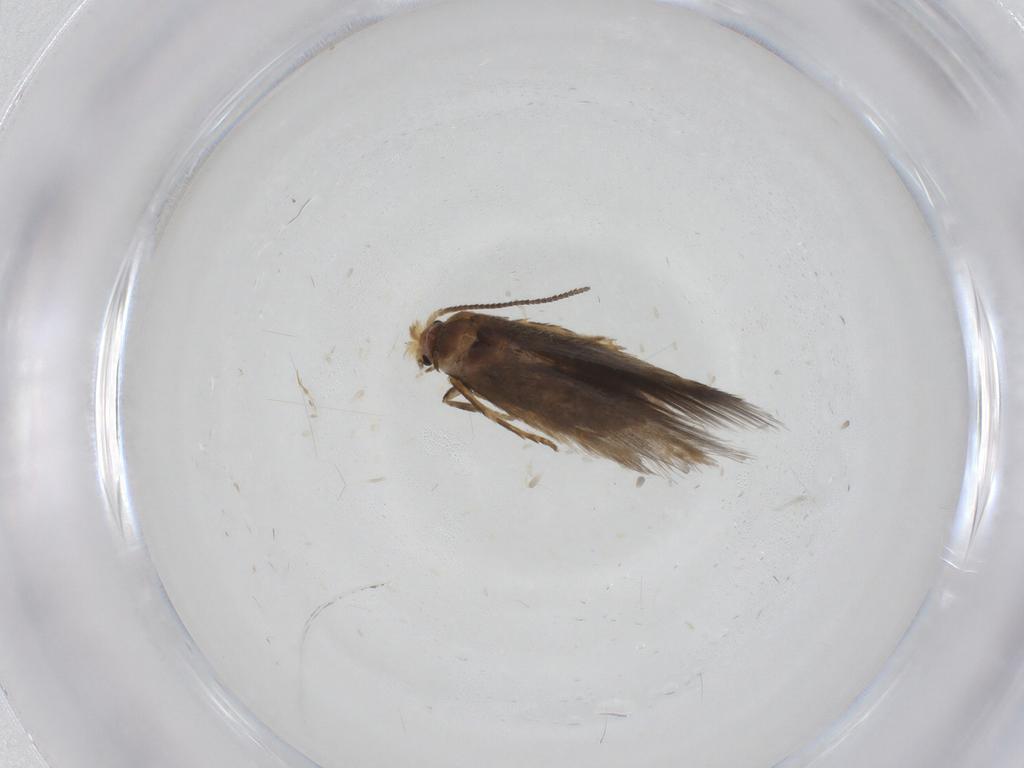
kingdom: Animalia
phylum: Arthropoda
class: Insecta
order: Lepidoptera
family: Nepticulidae
